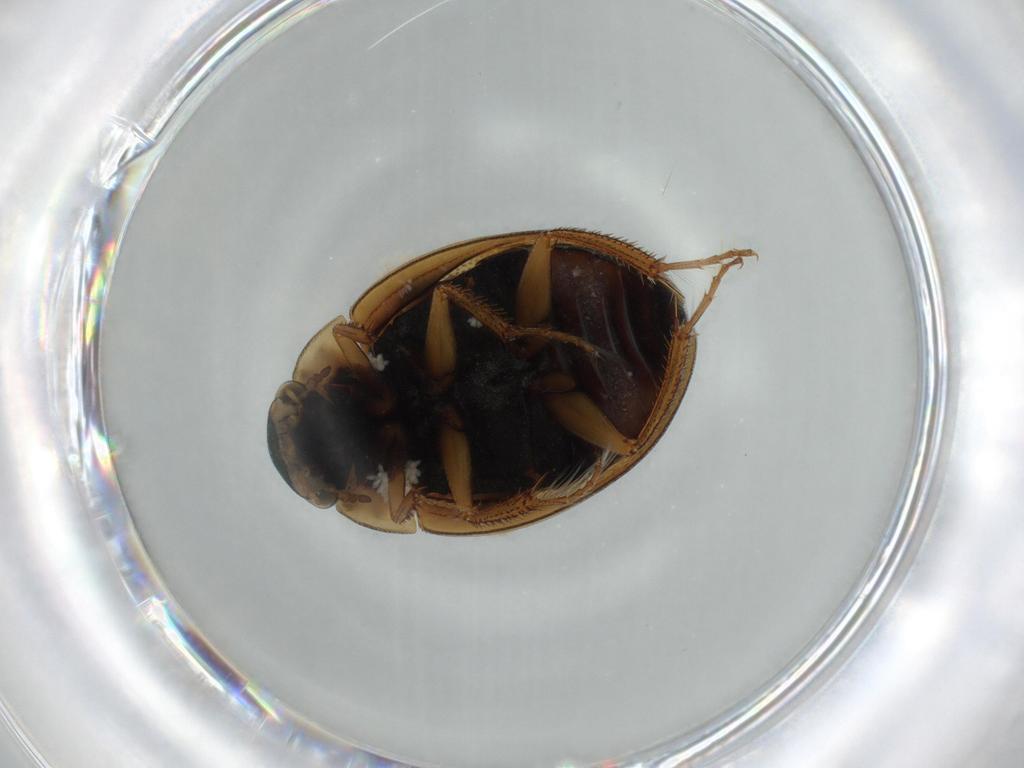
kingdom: Animalia
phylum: Arthropoda
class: Insecta
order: Coleoptera
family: Hydrophilidae
